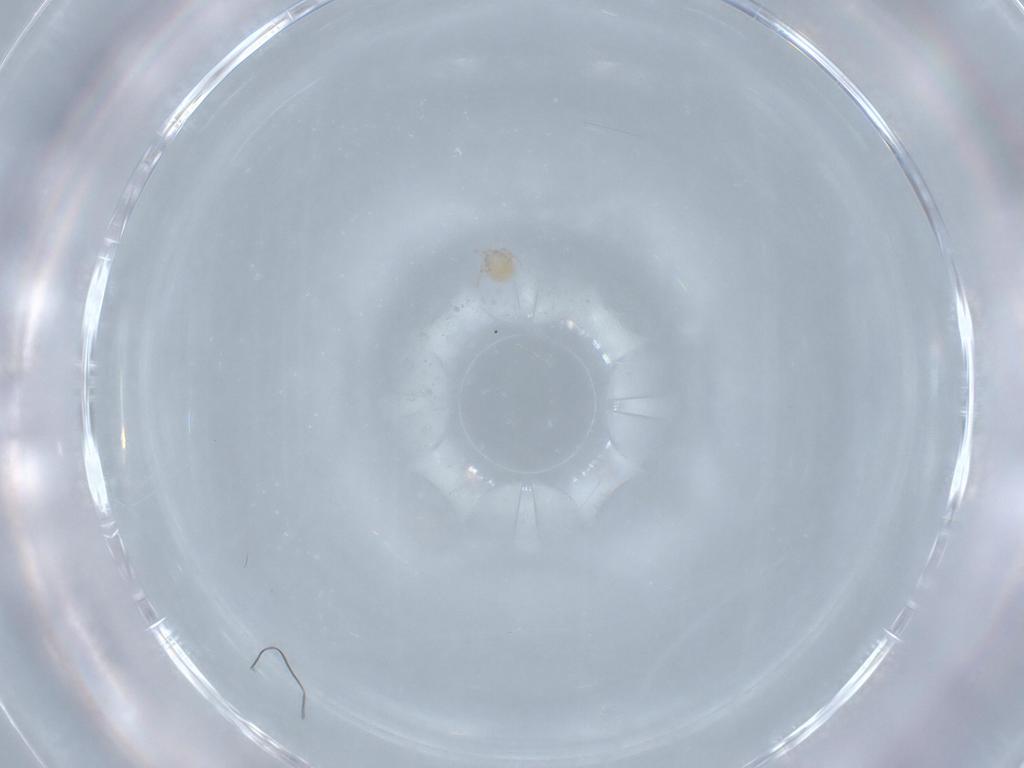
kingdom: Animalia
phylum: Arthropoda
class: Arachnida
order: Trombidiformes
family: Lebertiidae
